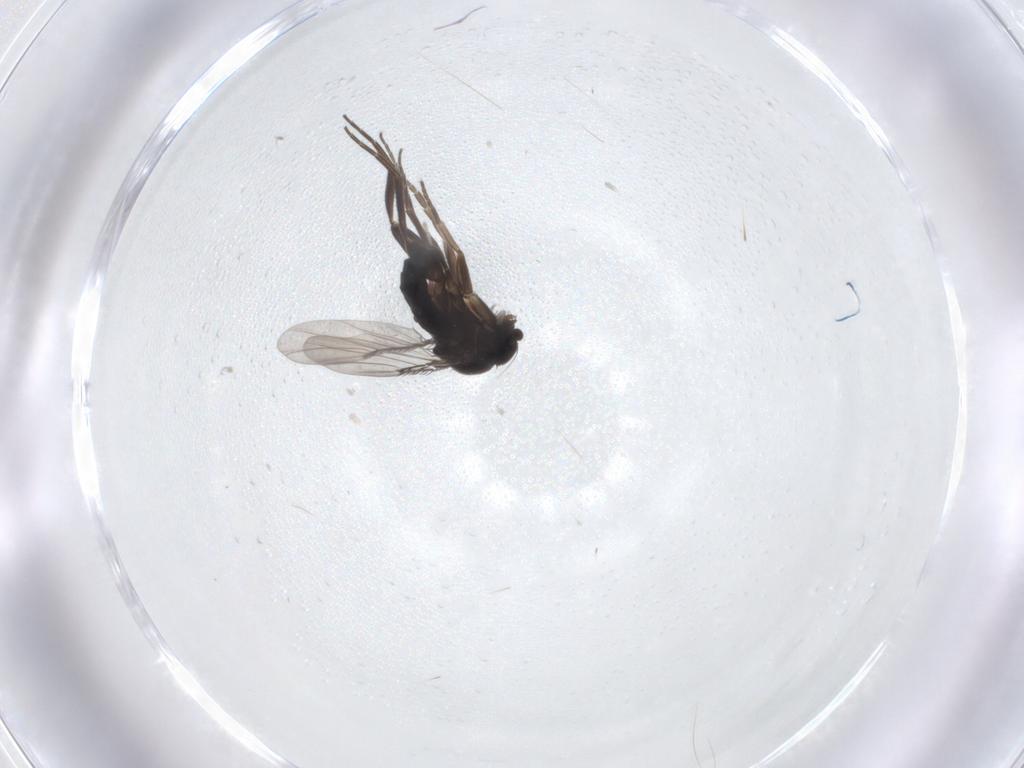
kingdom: Animalia
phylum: Arthropoda
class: Insecta
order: Diptera
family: Phoridae
